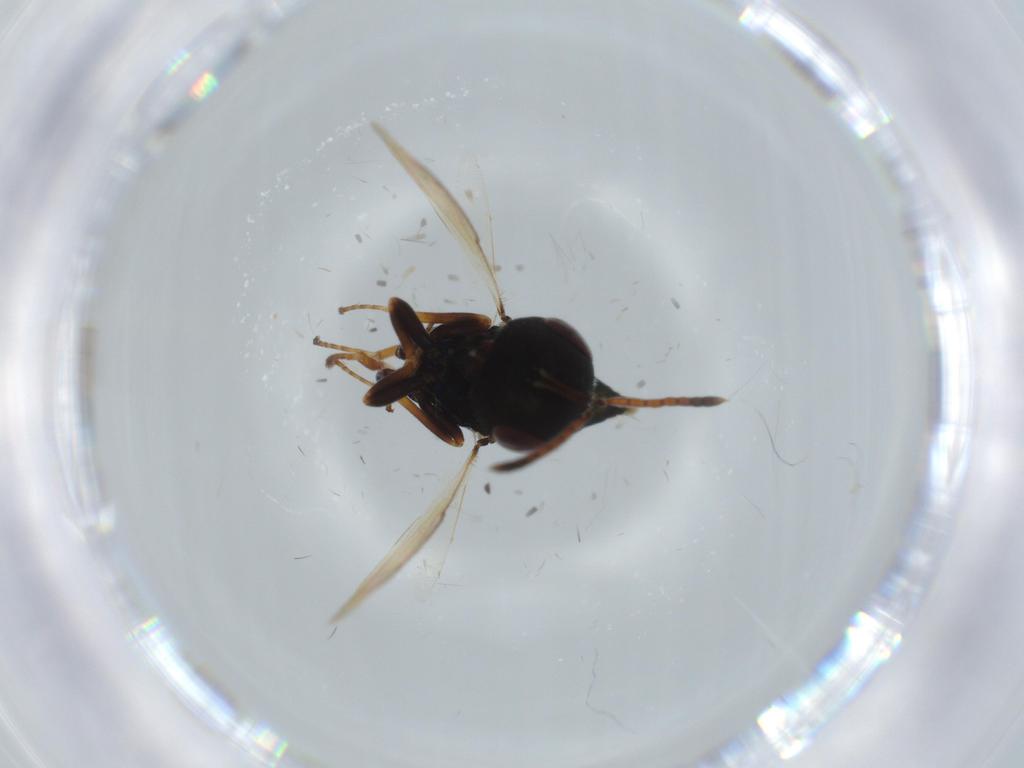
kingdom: Animalia
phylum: Arthropoda
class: Insecta
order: Hymenoptera
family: Pteromalidae
